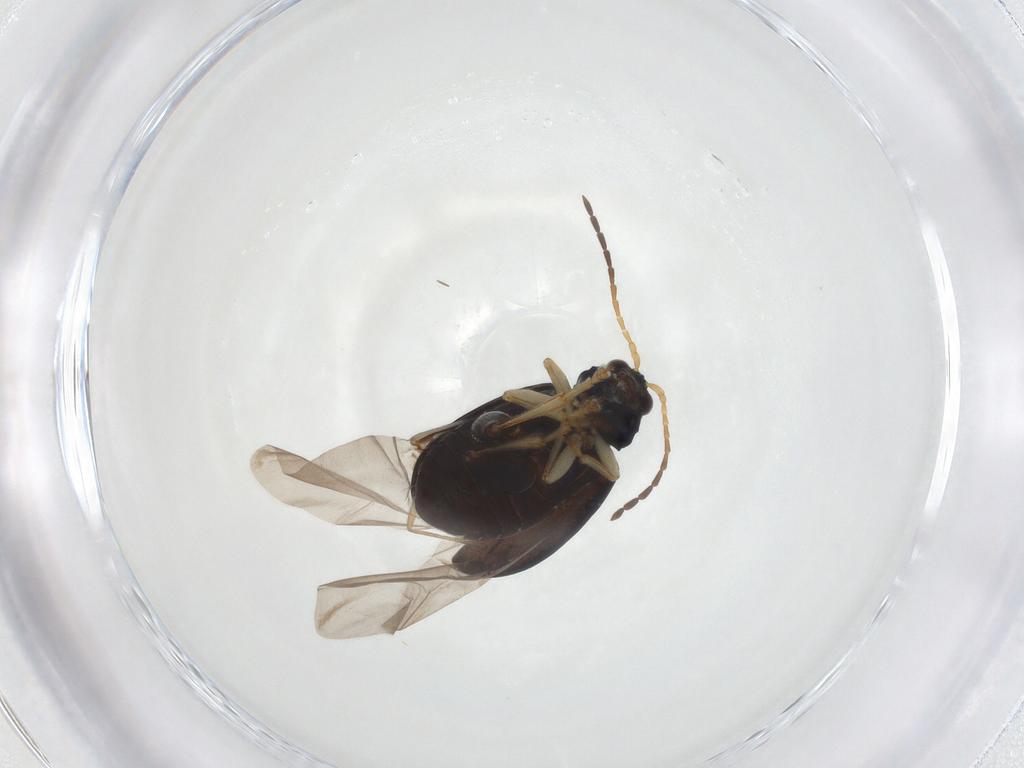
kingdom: Animalia
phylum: Arthropoda
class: Insecta
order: Coleoptera
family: Chrysomelidae
